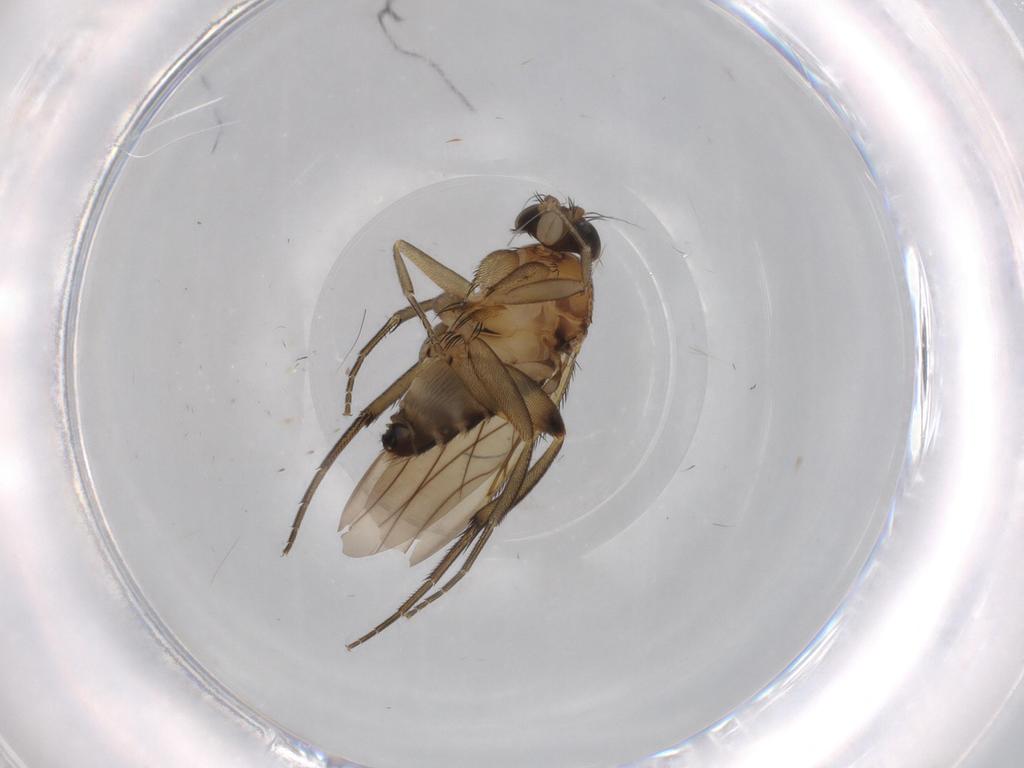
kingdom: Animalia
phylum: Arthropoda
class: Insecta
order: Diptera
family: Phoridae
